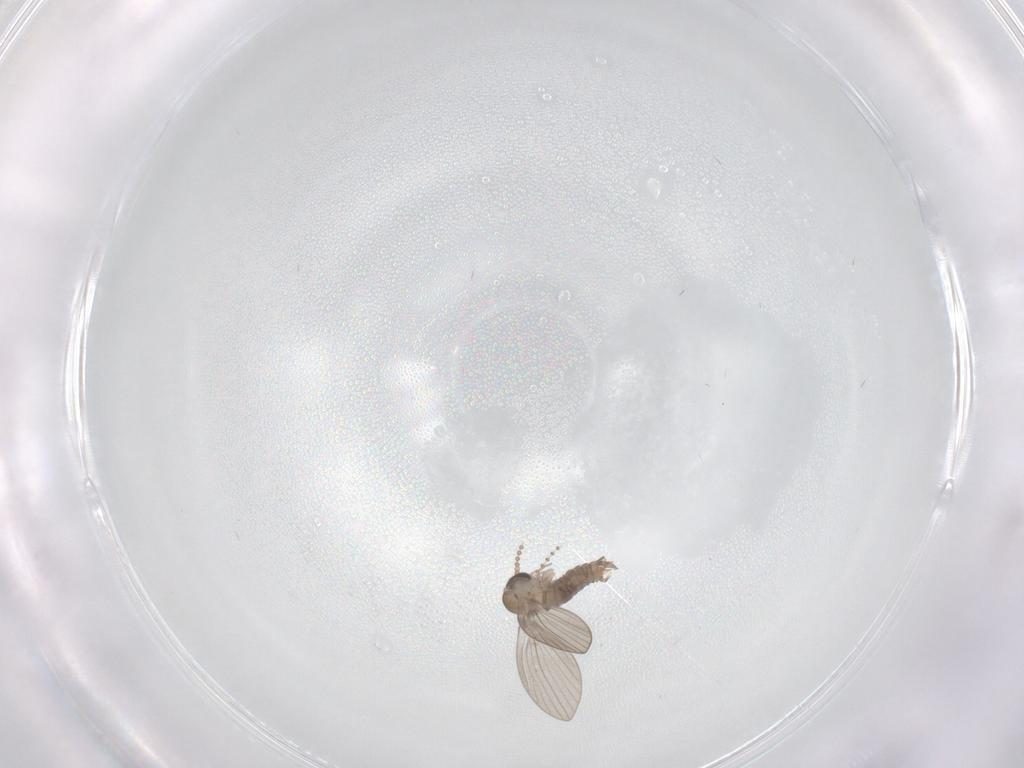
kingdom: Animalia
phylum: Arthropoda
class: Insecta
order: Diptera
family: Psychodidae
